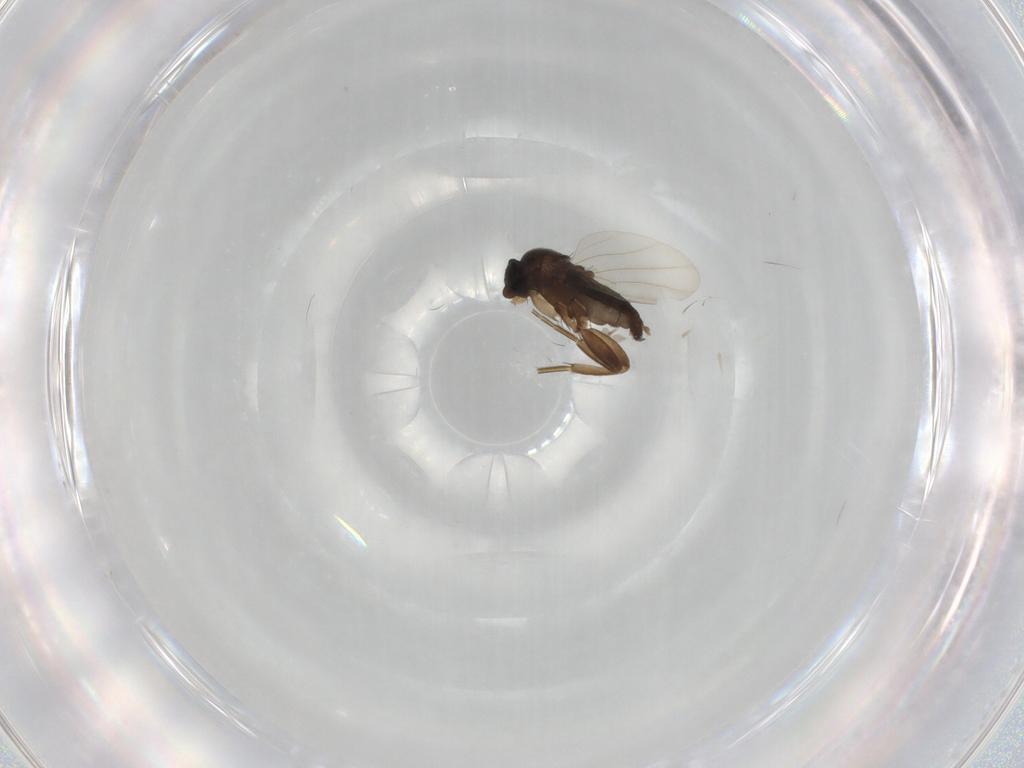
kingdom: Animalia
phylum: Arthropoda
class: Insecta
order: Diptera
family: Phoridae
